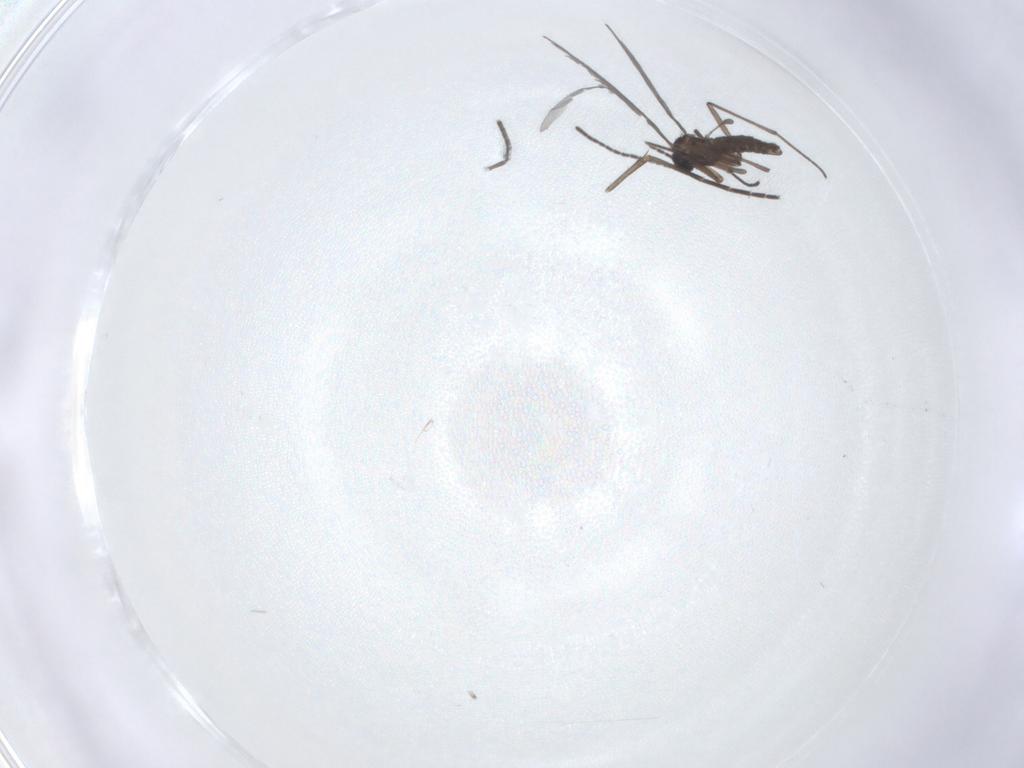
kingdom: Animalia
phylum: Arthropoda
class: Insecta
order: Diptera
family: Sciaridae
